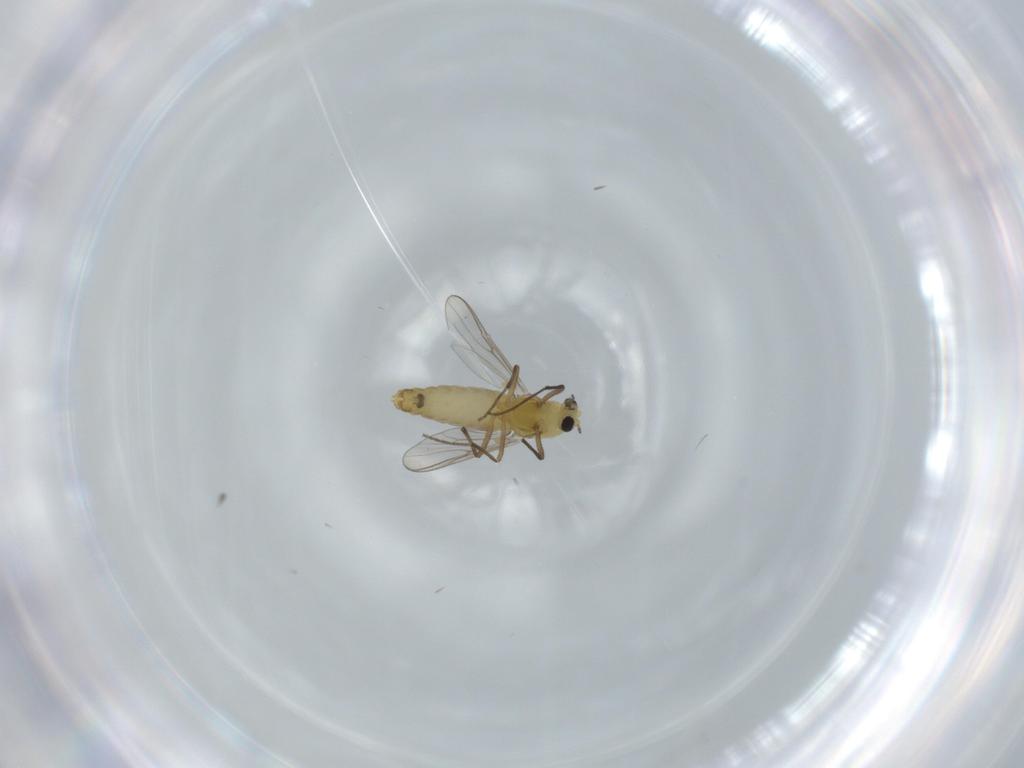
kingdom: Animalia
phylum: Arthropoda
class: Insecta
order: Diptera
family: Chironomidae
